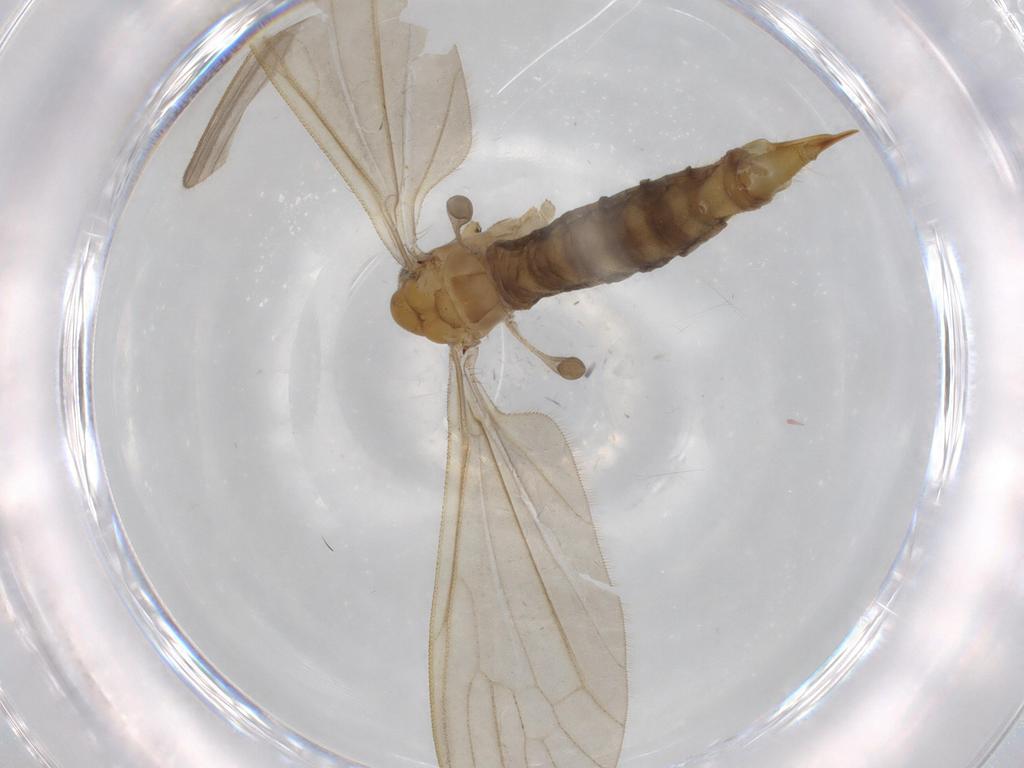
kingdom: Animalia
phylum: Arthropoda
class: Insecta
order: Diptera
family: Sciaridae
